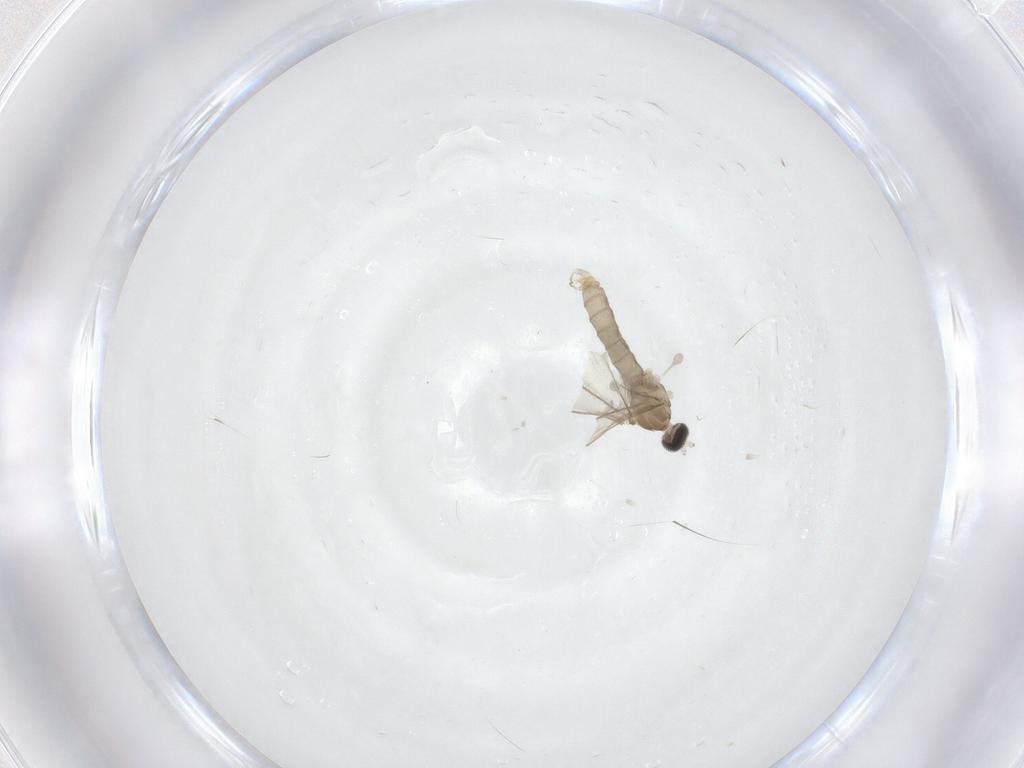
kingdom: Animalia
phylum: Arthropoda
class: Insecta
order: Diptera
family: Cecidomyiidae
